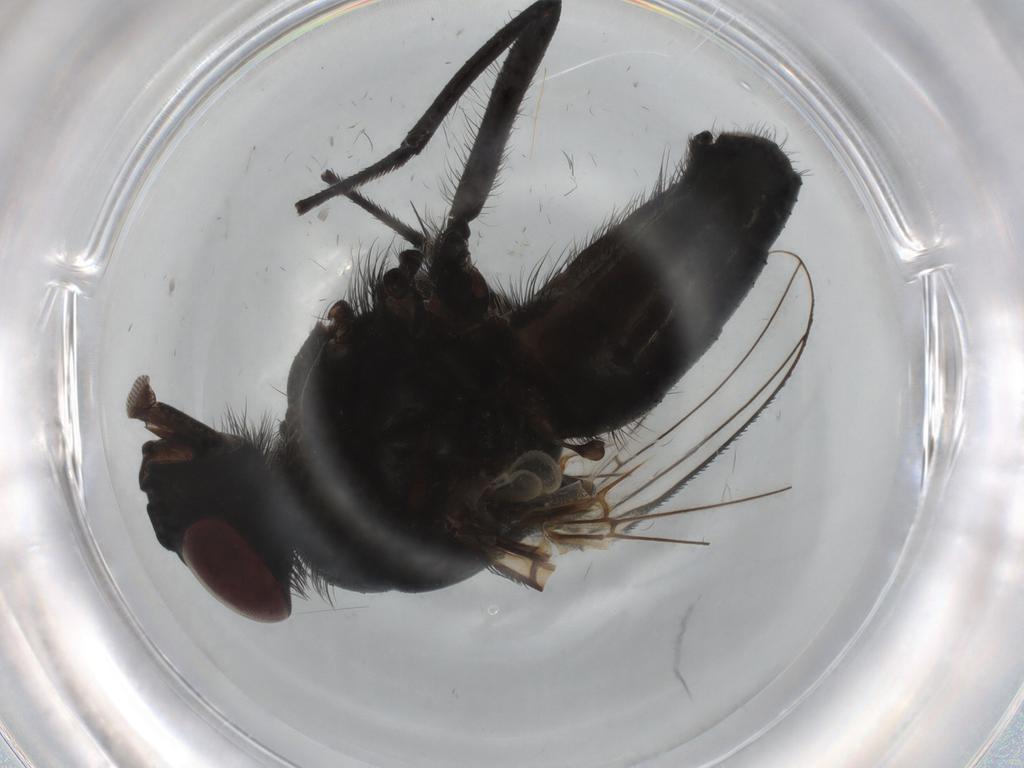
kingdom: Animalia
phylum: Arthropoda
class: Insecta
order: Diptera
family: Muscidae
